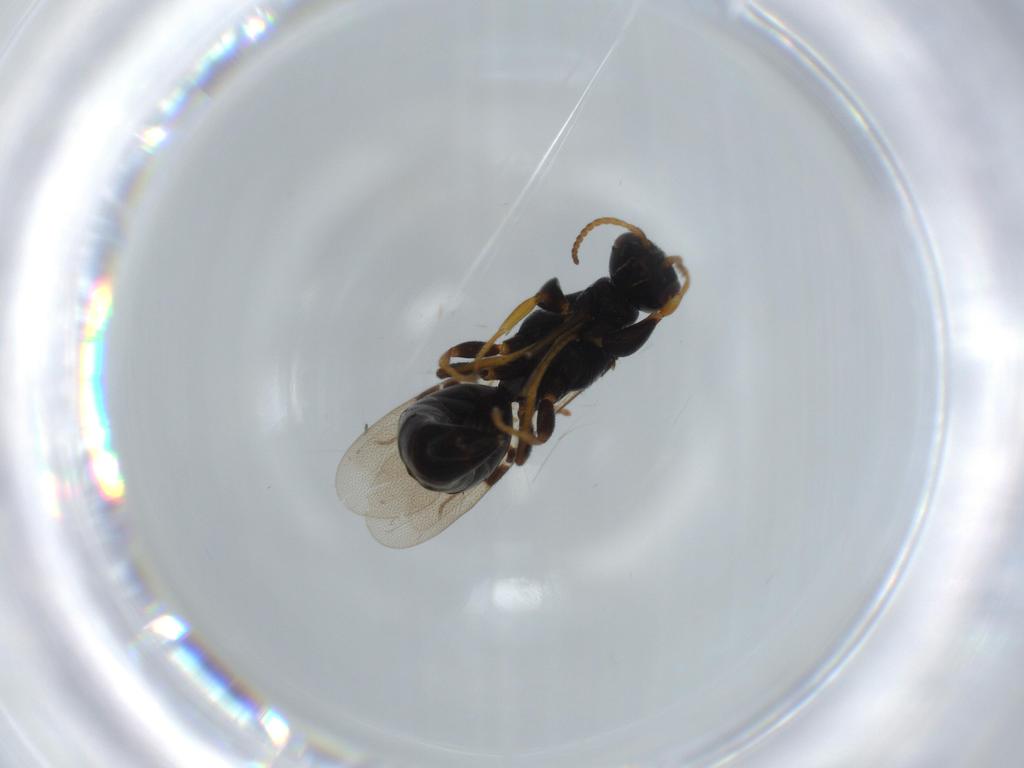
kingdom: Animalia
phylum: Arthropoda
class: Insecta
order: Hymenoptera
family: Bethylidae
